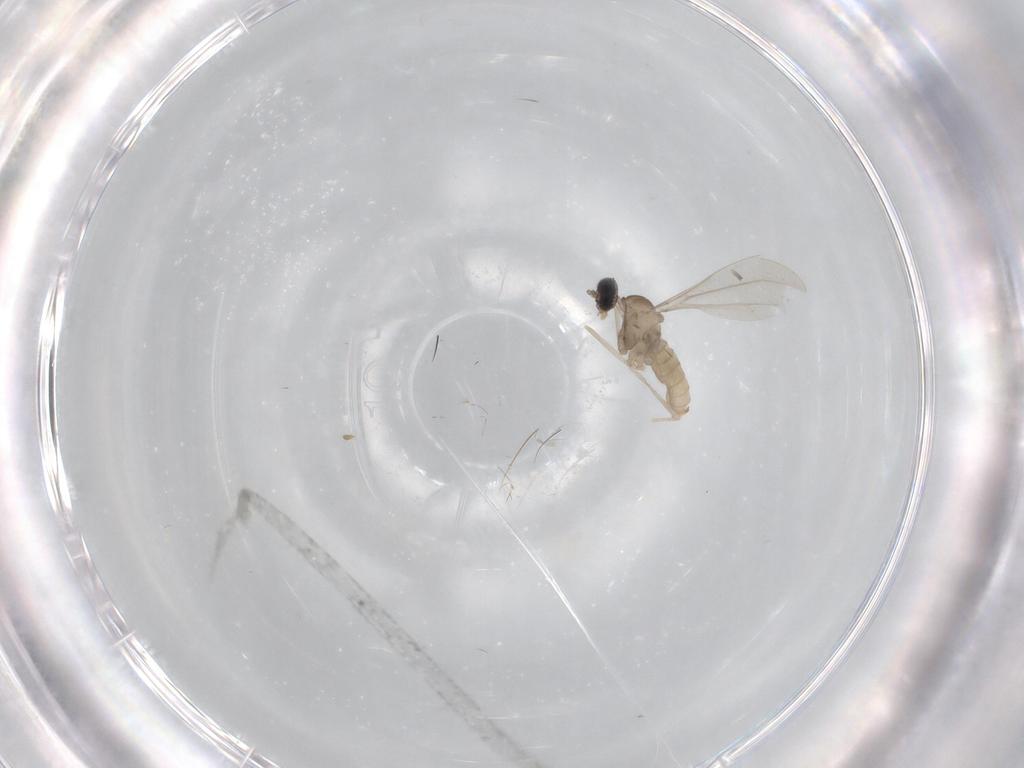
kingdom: Animalia
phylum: Arthropoda
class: Insecta
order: Diptera
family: Cecidomyiidae
